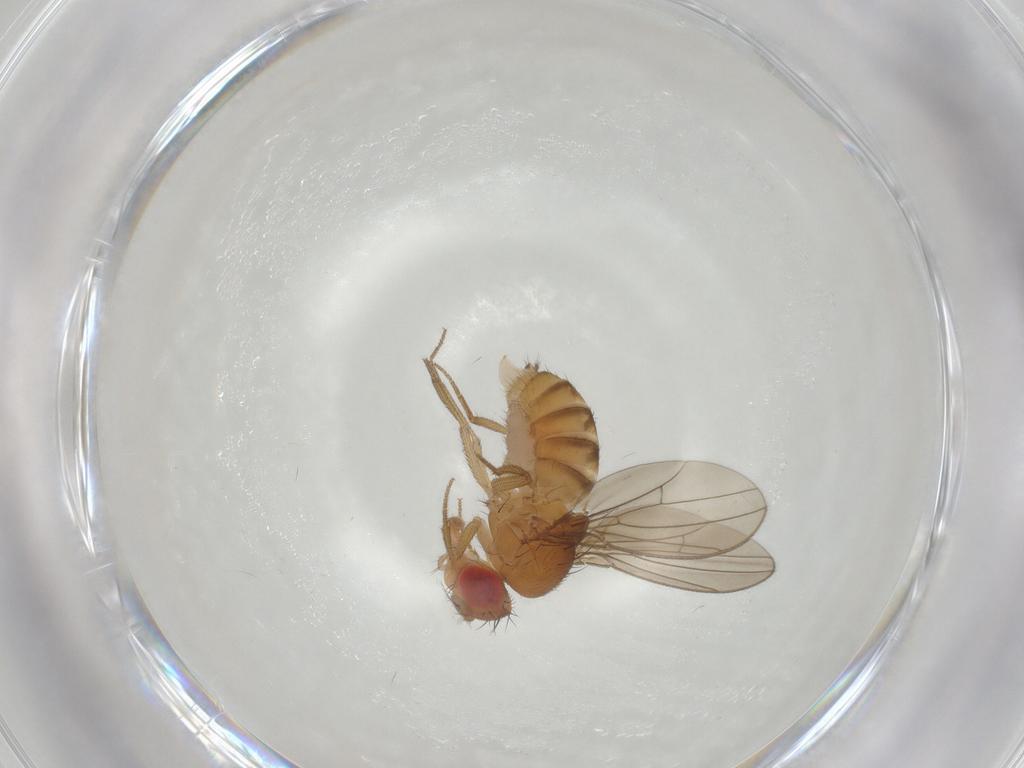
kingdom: Animalia
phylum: Arthropoda
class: Insecta
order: Diptera
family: Drosophilidae
